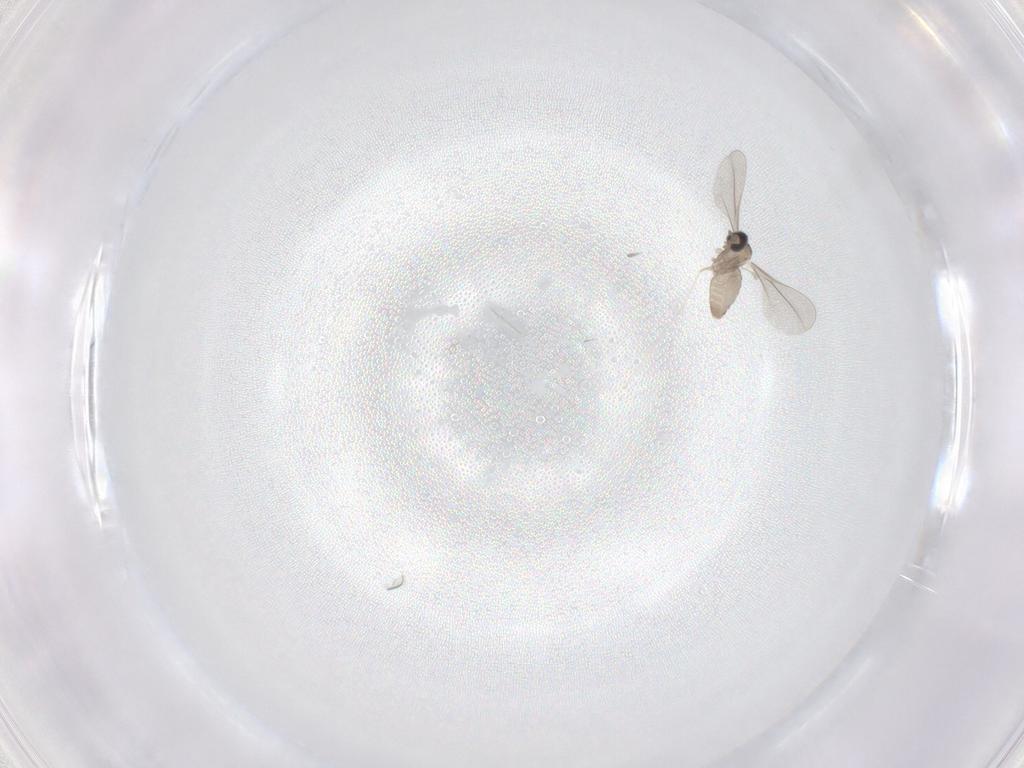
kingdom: Animalia
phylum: Arthropoda
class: Insecta
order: Diptera
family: Cecidomyiidae
